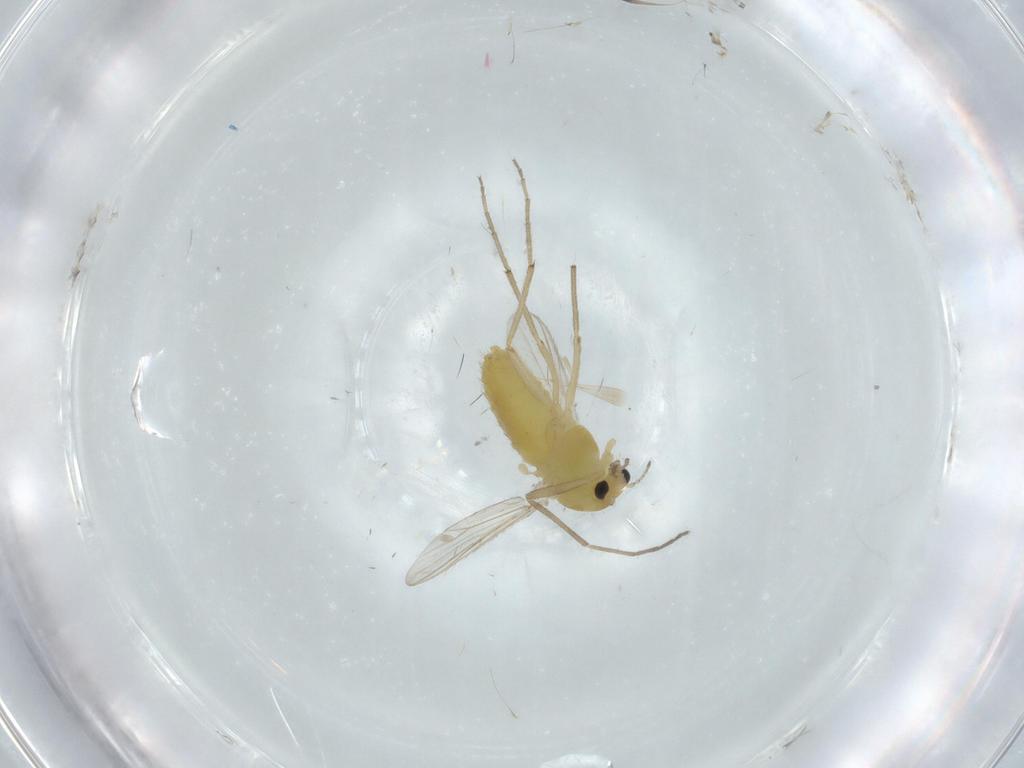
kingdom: Animalia
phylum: Arthropoda
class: Insecta
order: Diptera
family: Chironomidae
